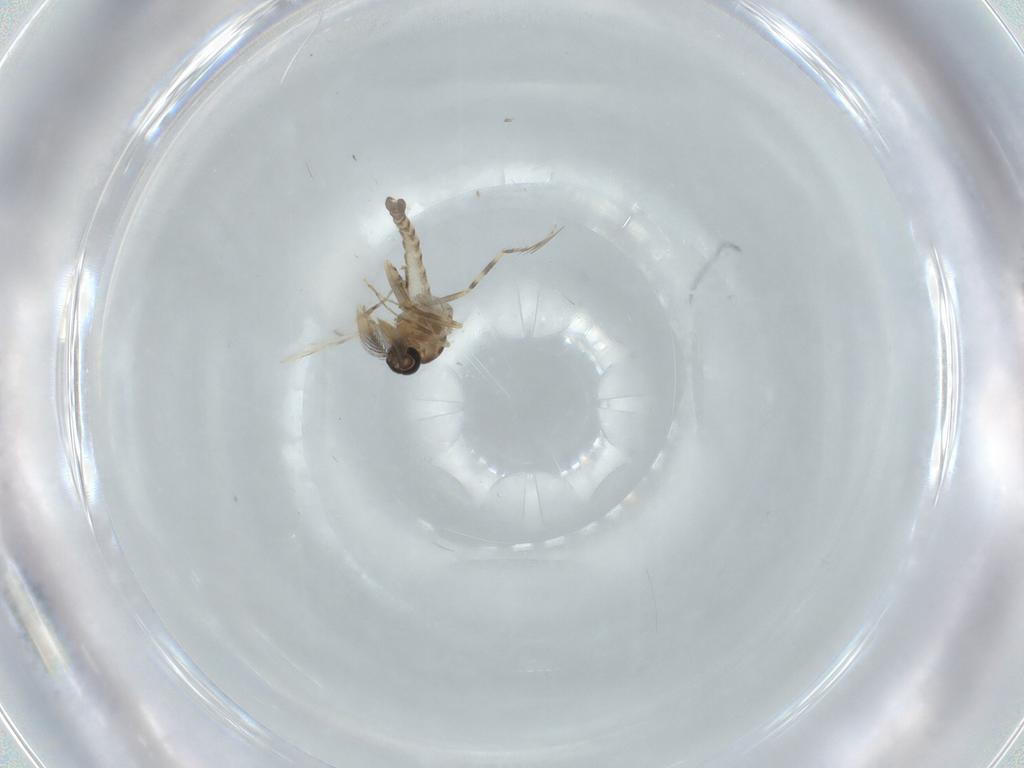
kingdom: Animalia
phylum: Arthropoda
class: Insecta
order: Diptera
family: Ceratopogonidae
